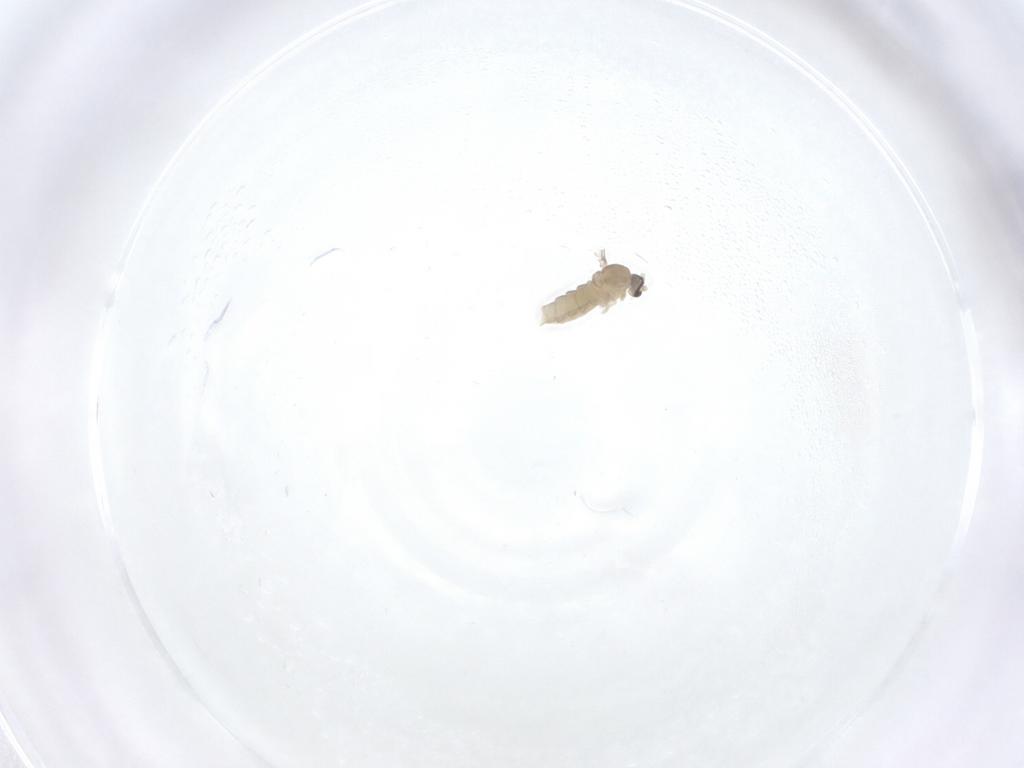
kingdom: Animalia
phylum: Arthropoda
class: Insecta
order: Diptera
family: Cecidomyiidae
